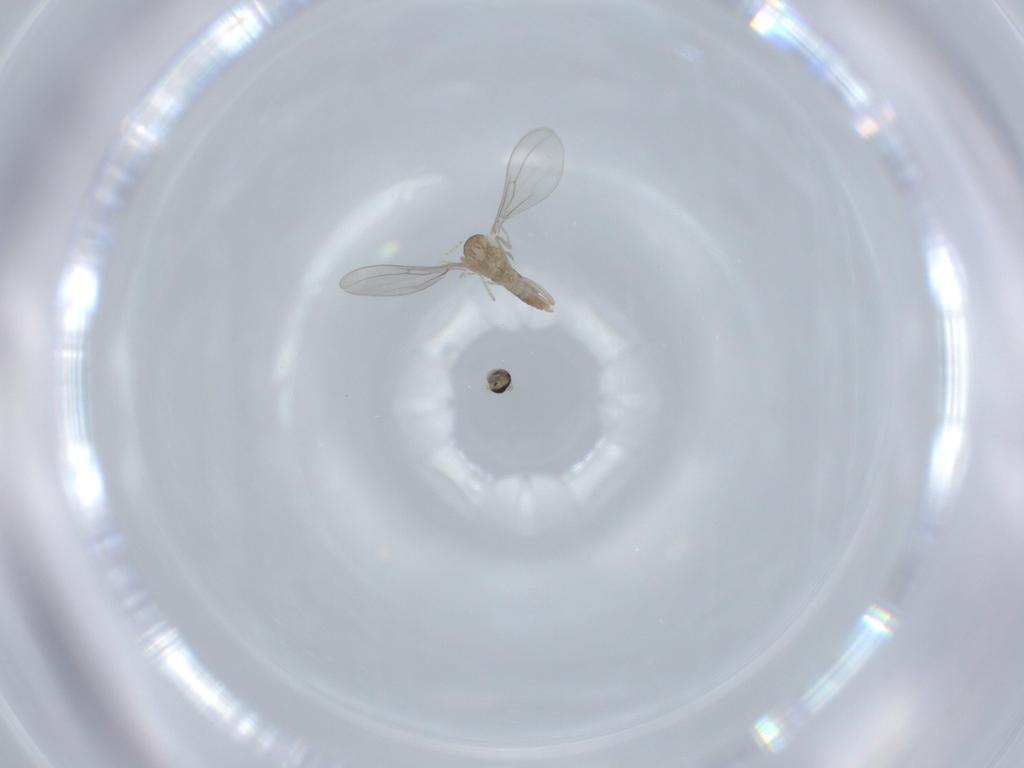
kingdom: Animalia
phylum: Arthropoda
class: Insecta
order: Diptera
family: Cecidomyiidae
